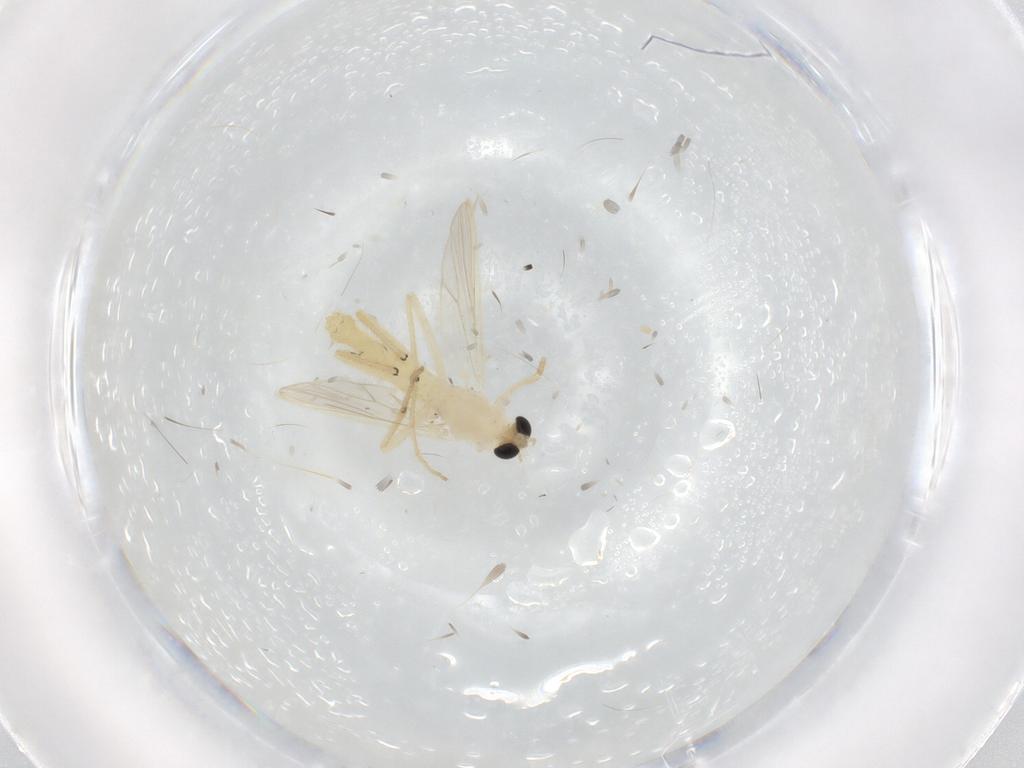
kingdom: Animalia
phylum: Arthropoda
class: Insecta
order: Diptera
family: Chironomidae
